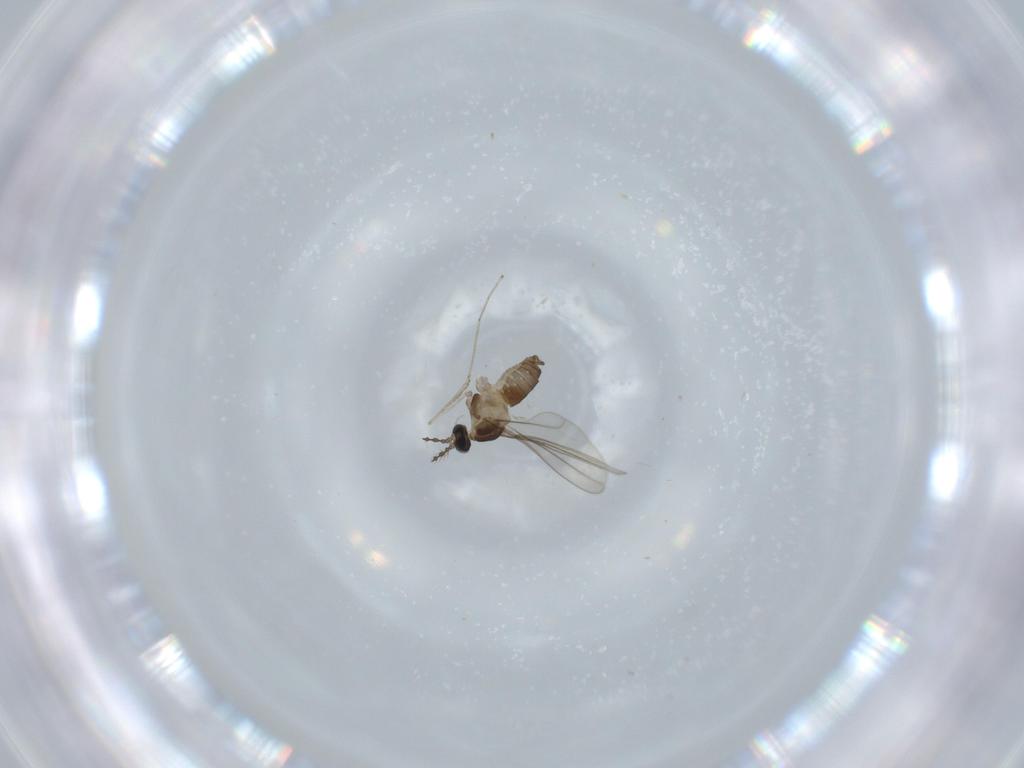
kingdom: Animalia
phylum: Arthropoda
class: Insecta
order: Diptera
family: Cecidomyiidae
